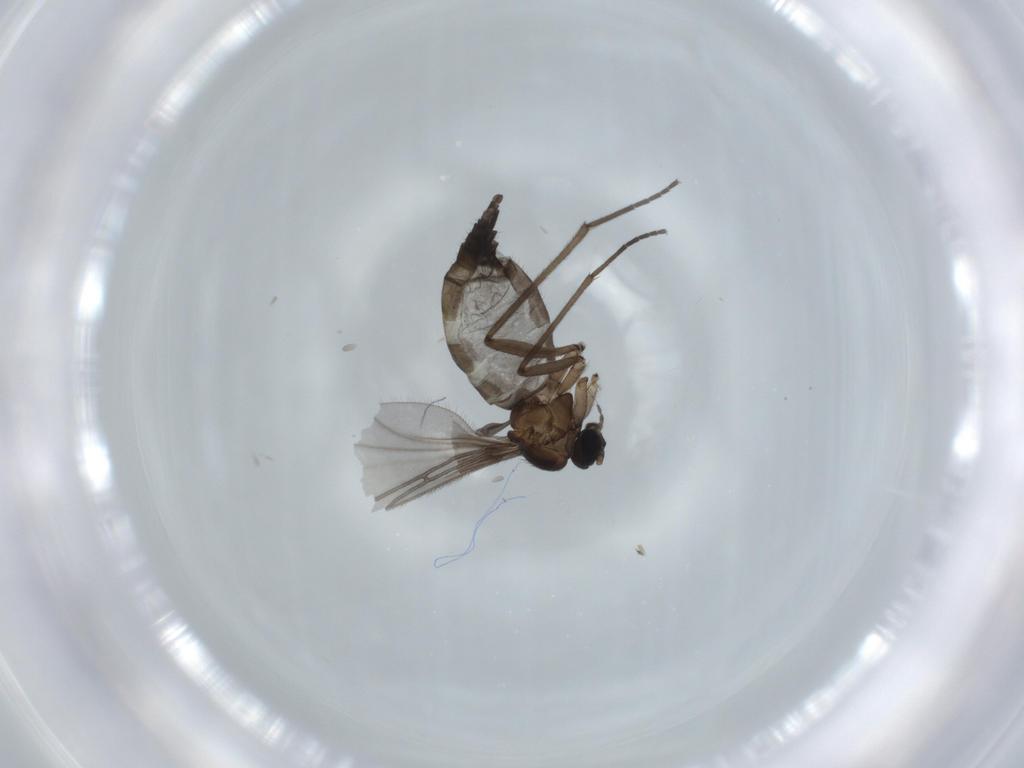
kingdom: Animalia
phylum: Arthropoda
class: Insecta
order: Diptera
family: Sciaridae
